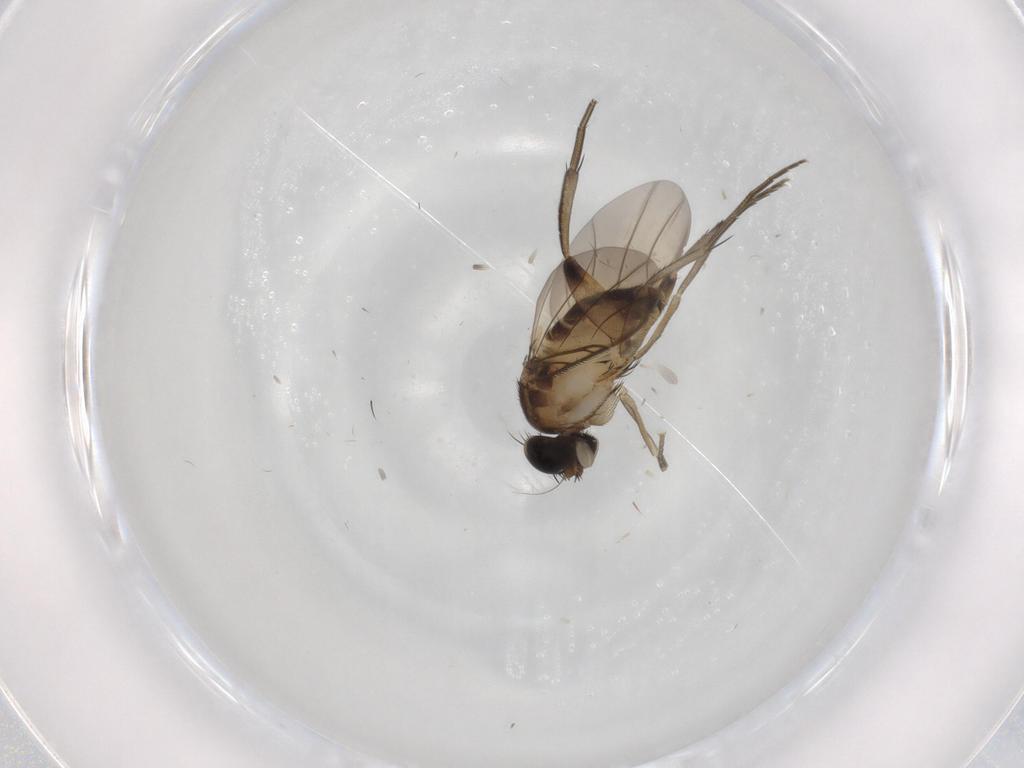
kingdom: Animalia
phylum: Arthropoda
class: Insecta
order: Diptera
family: Phoridae
